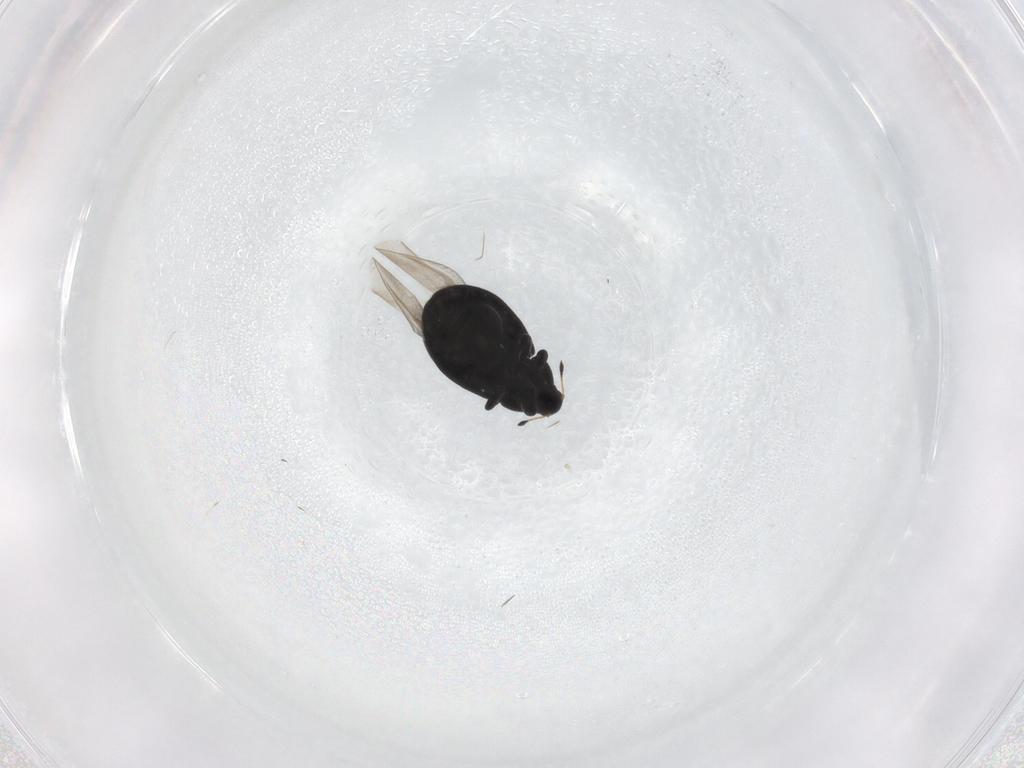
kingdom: Animalia
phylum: Arthropoda
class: Insecta
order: Coleoptera
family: Curculionidae
